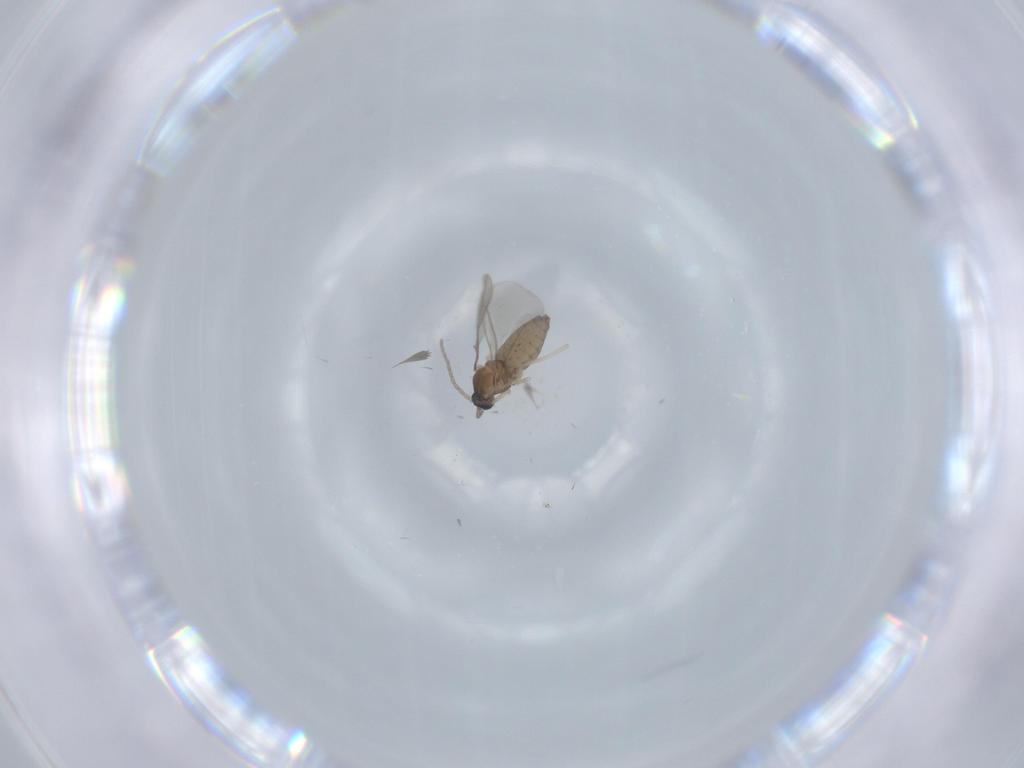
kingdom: Animalia
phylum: Arthropoda
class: Insecta
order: Diptera
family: Cecidomyiidae
